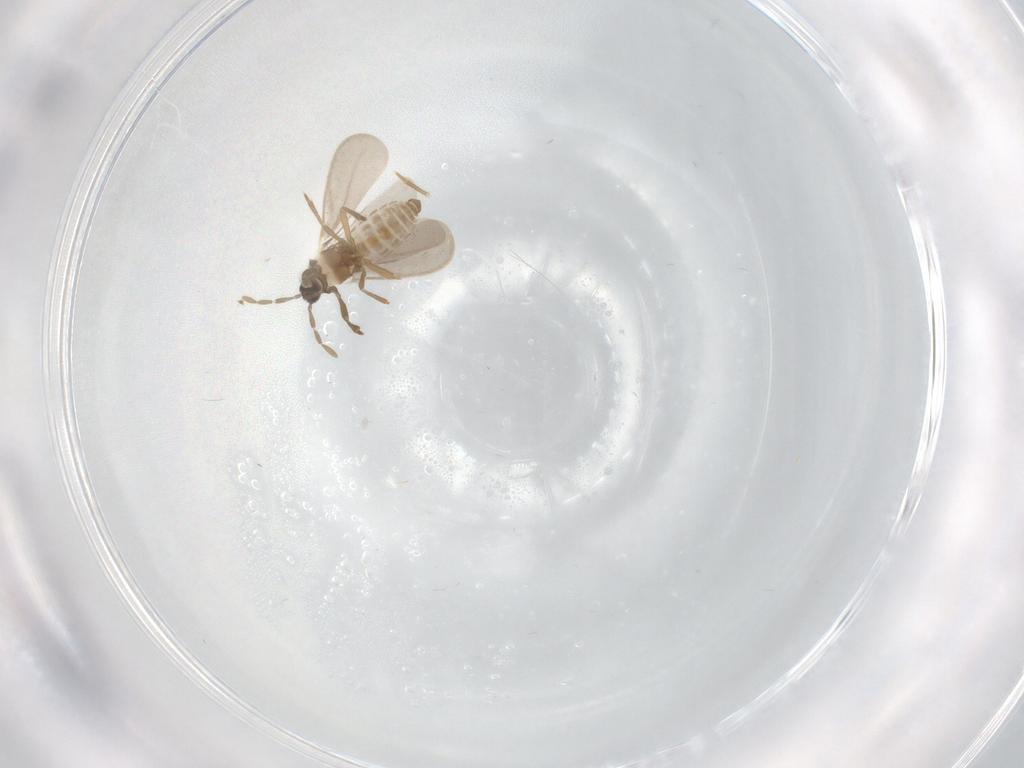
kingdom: Animalia
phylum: Arthropoda
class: Insecta
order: Hemiptera
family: Enicocephalidae
